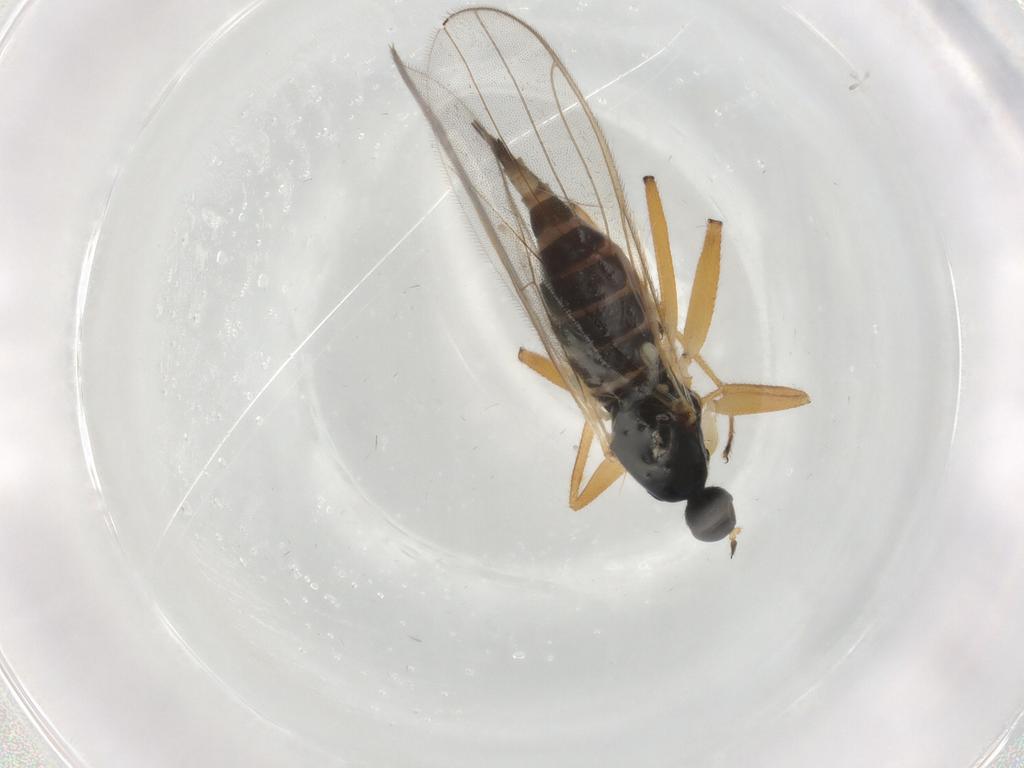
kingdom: Animalia
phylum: Arthropoda
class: Insecta
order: Diptera
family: Hybotidae
